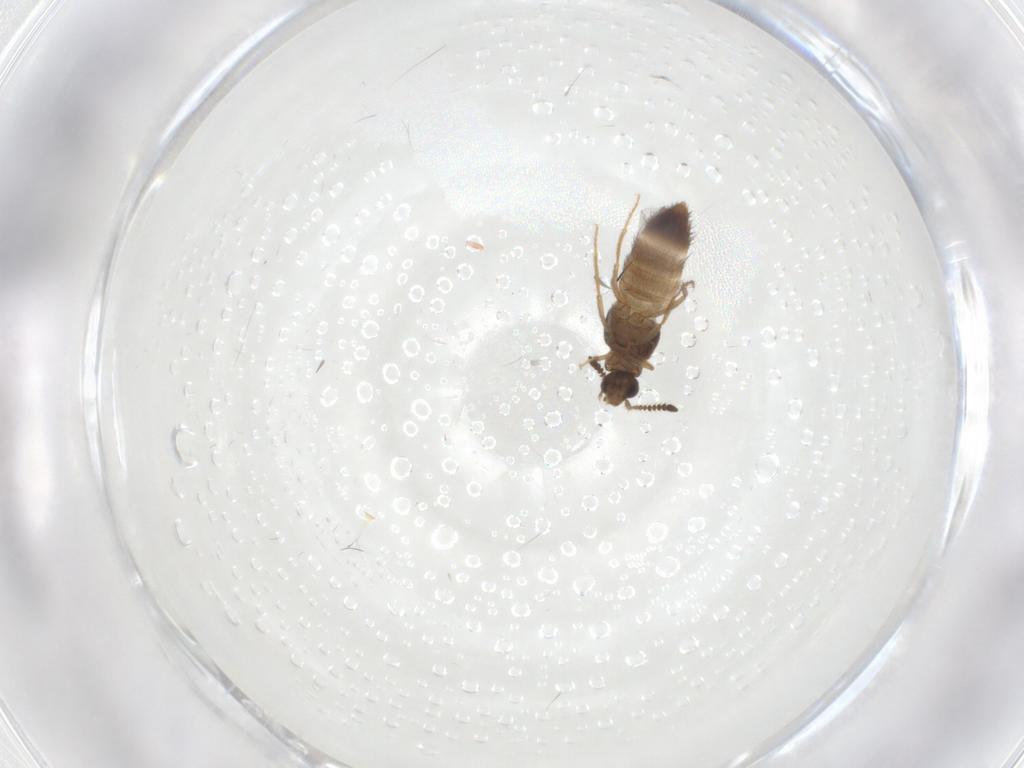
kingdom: Animalia
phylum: Arthropoda
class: Insecta
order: Coleoptera
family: Staphylinidae
